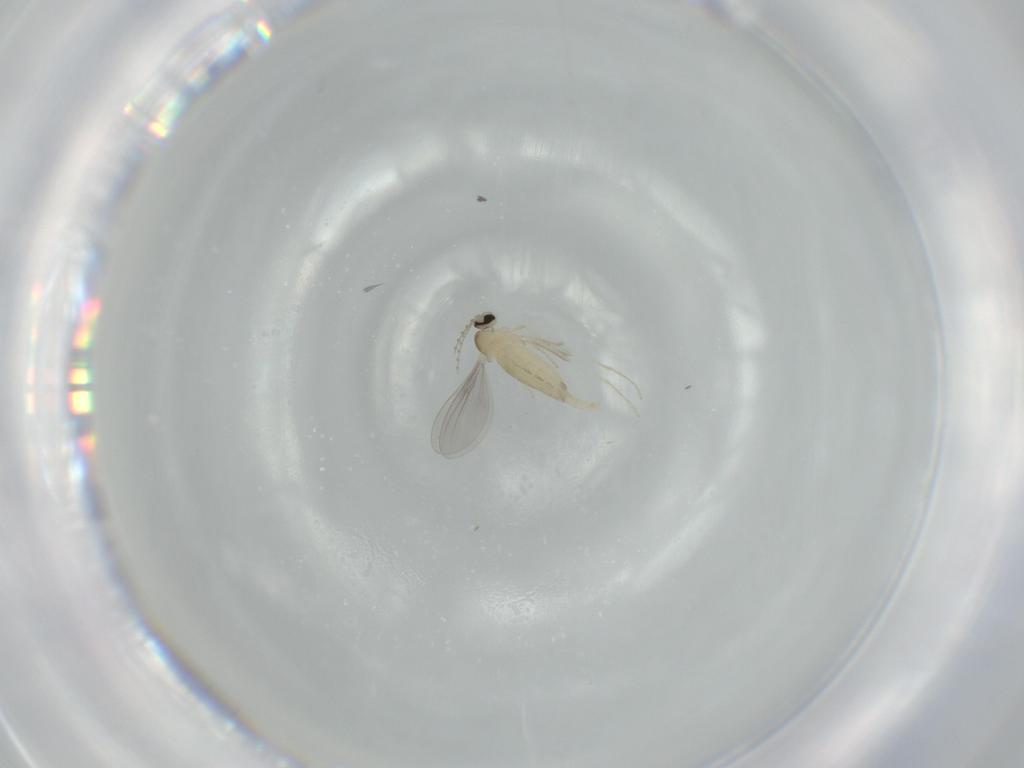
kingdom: Animalia
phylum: Arthropoda
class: Insecta
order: Diptera
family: Cecidomyiidae
